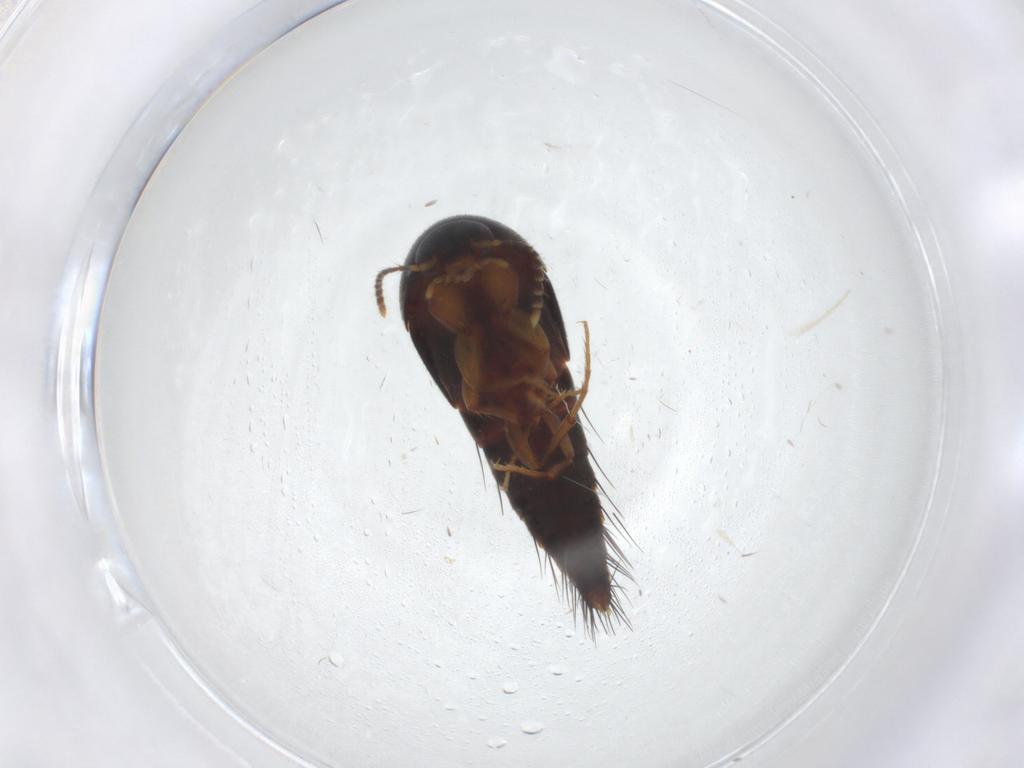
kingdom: Animalia
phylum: Arthropoda
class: Insecta
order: Coleoptera
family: Staphylinidae
